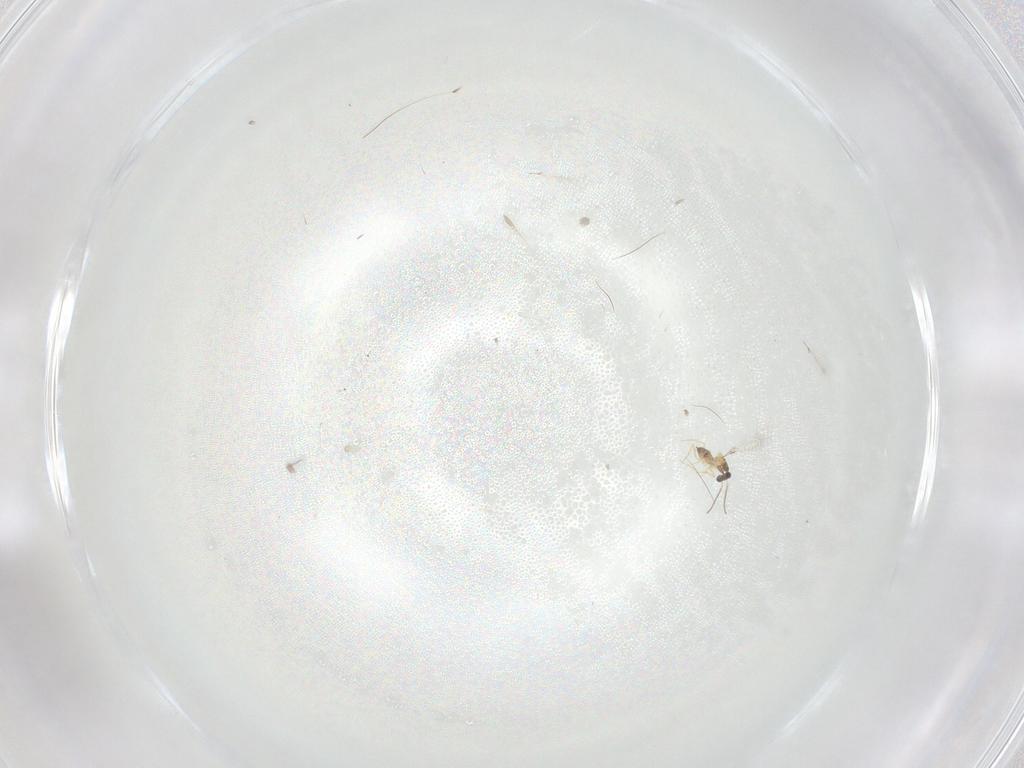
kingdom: Animalia
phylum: Arthropoda
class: Insecta
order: Hymenoptera
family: Mymaridae
